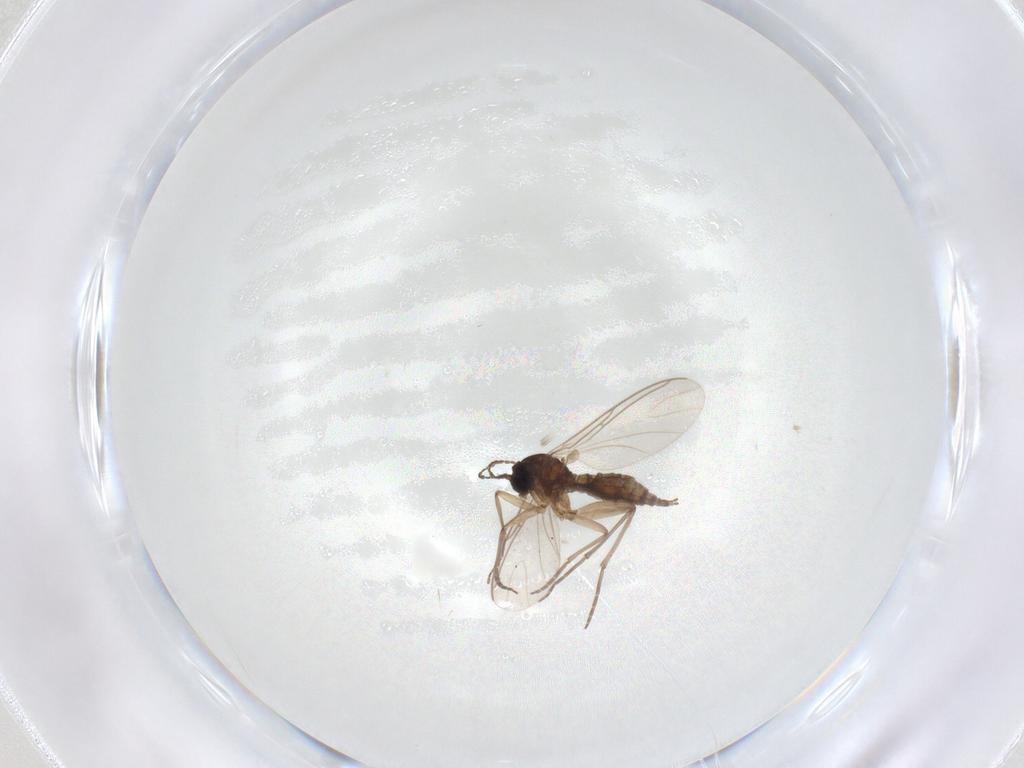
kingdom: Animalia
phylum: Arthropoda
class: Insecta
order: Diptera
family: Sciaridae
